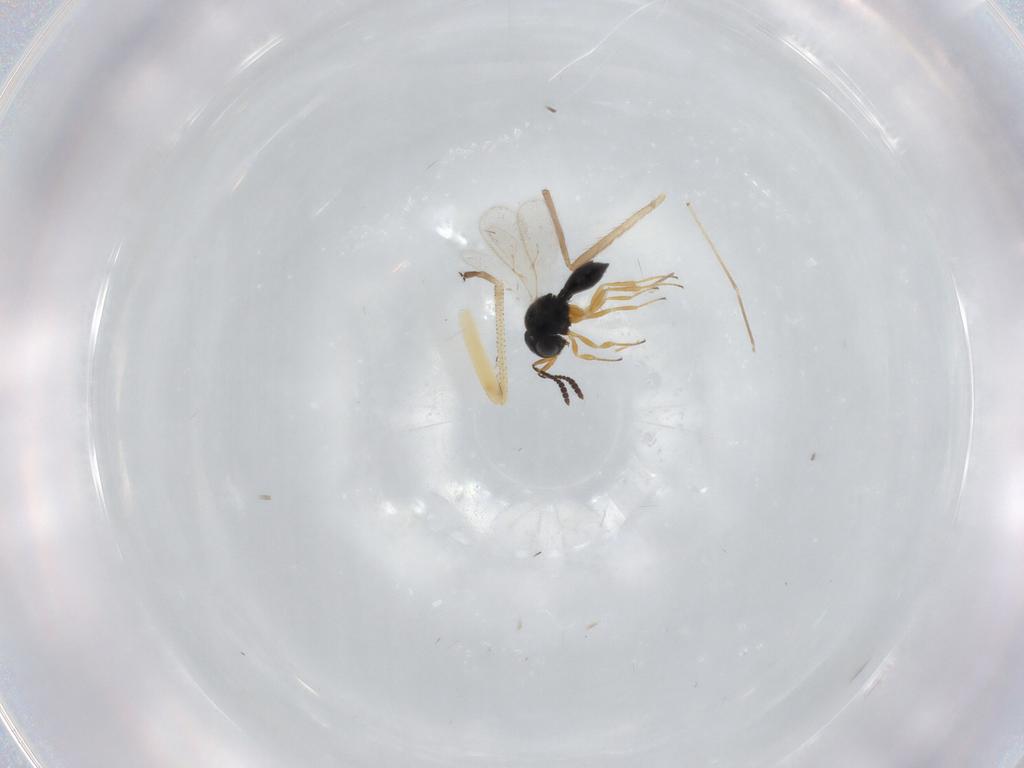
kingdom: Animalia
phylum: Arthropoda
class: Insecta
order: Hymenoptera
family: Scelionidae
